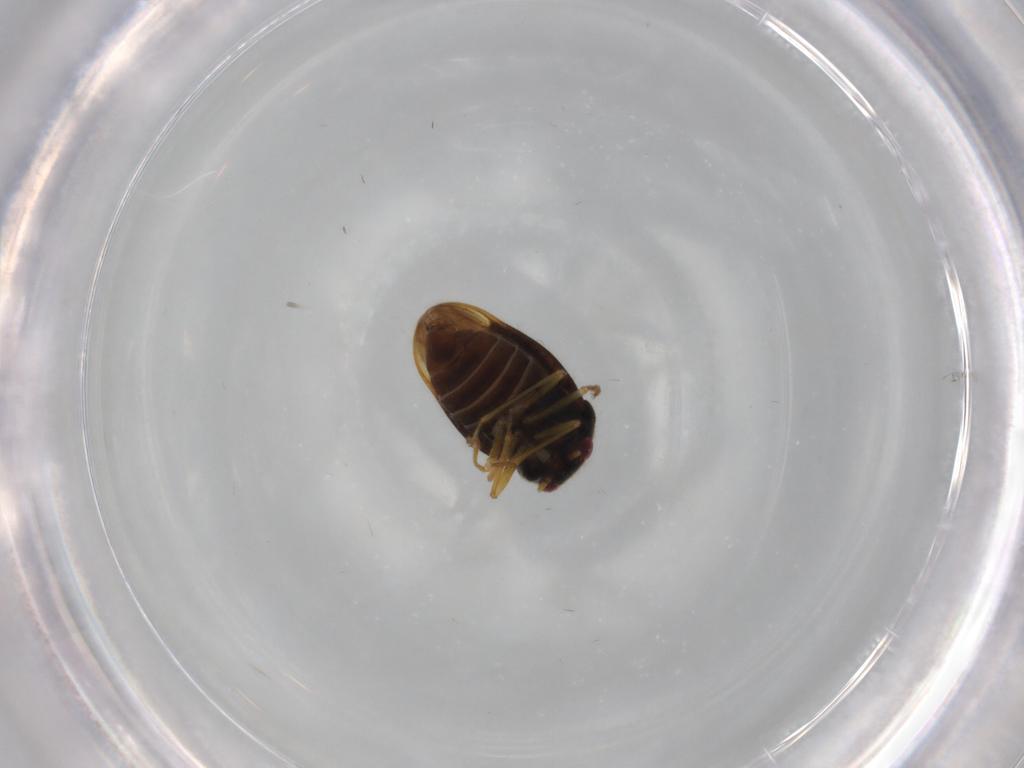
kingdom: Animalia
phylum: Arthropoda
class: Insecta
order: Hemiptera
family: Schizopteridae
